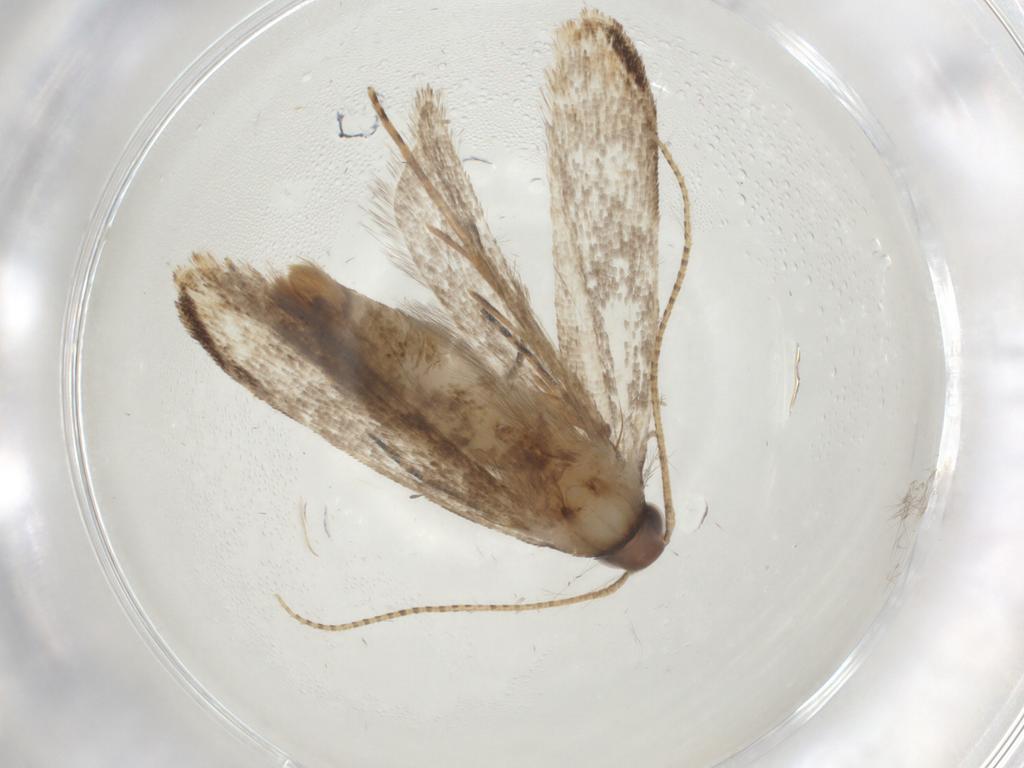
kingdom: Animalia
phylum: Arthropoda
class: Insecta
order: Lepidoptera
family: Gelechiidae
